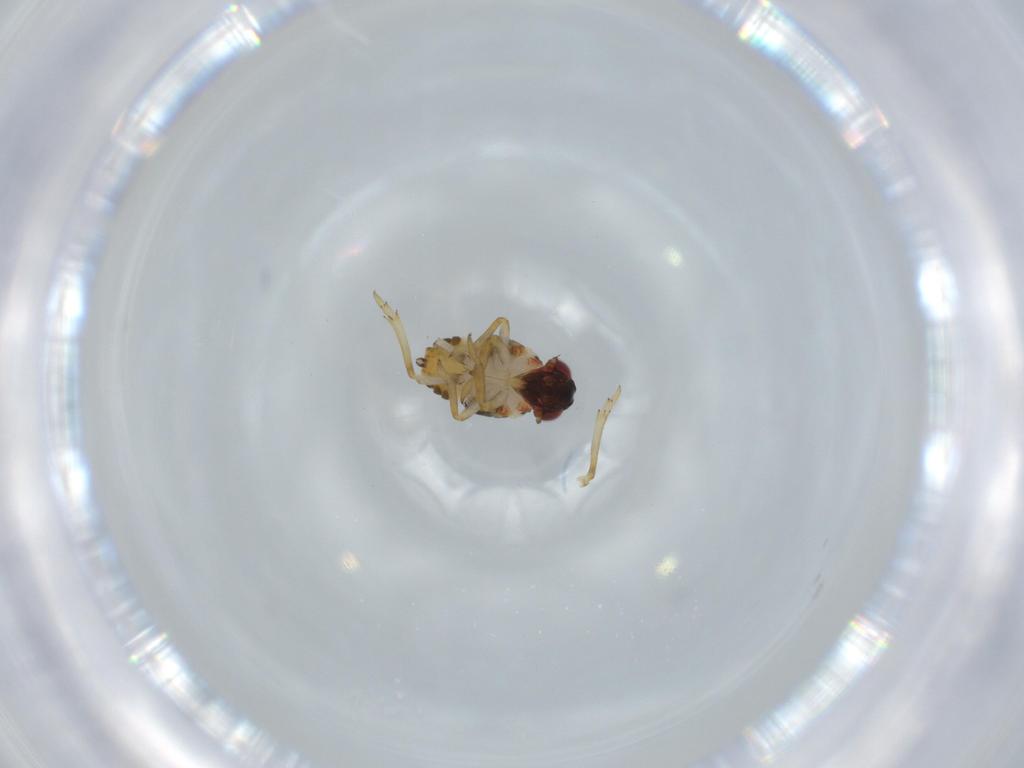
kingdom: Animalia
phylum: Arthropoda
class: Insecta
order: Hemiptera
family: Issidae
